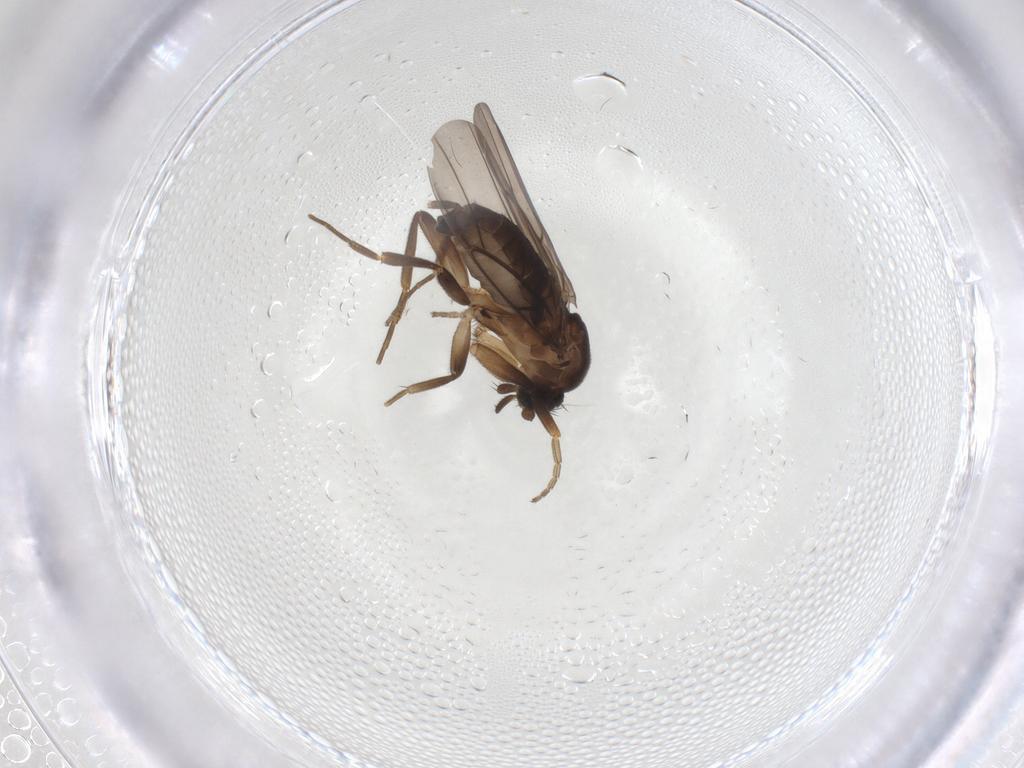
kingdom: Animalia
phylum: Arthropoda
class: Insecta
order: Diptera
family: Phoridae
